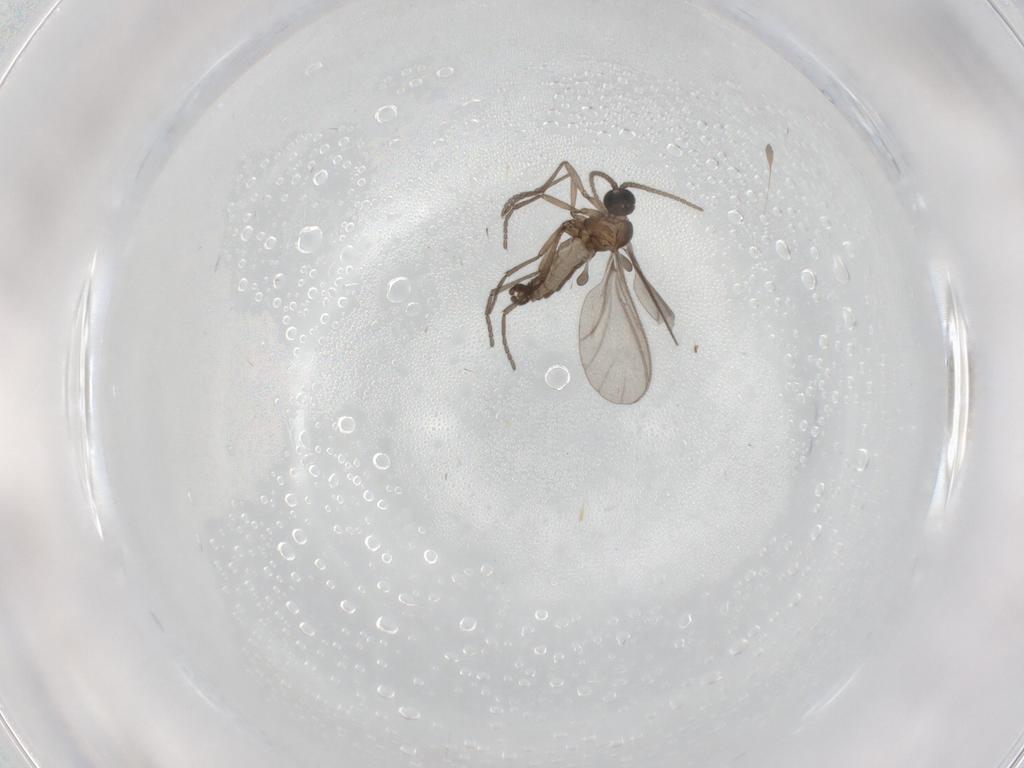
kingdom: Animalia
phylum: Arthropoda
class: Insecta
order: Diptera
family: Sciaridae
